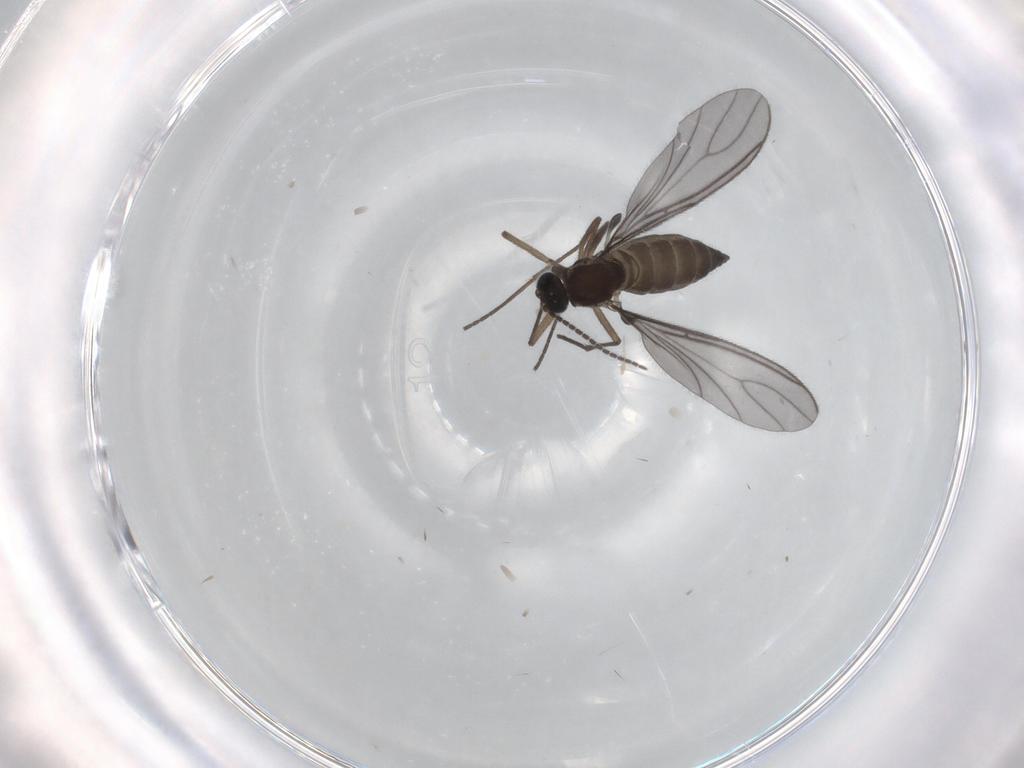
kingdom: Animalia
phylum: Arthropoda
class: Insecta
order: Diptera
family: Sciaridae
